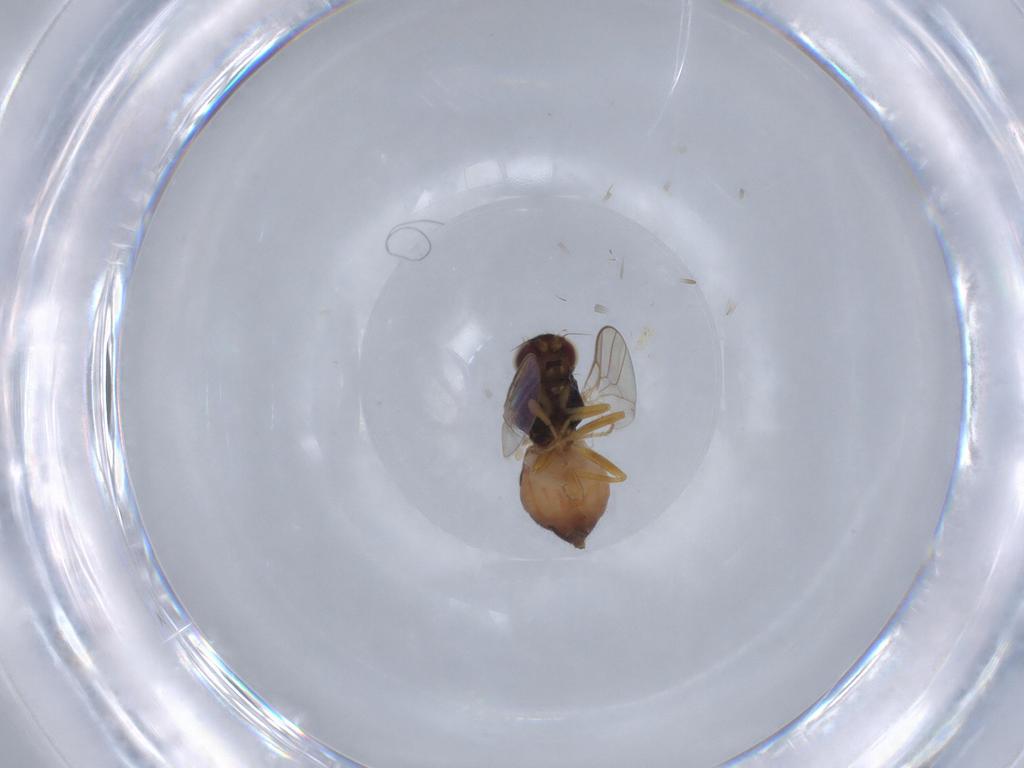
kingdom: Animalia
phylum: Arthropoda
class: Insecta
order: Diptera
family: Chloropidae
